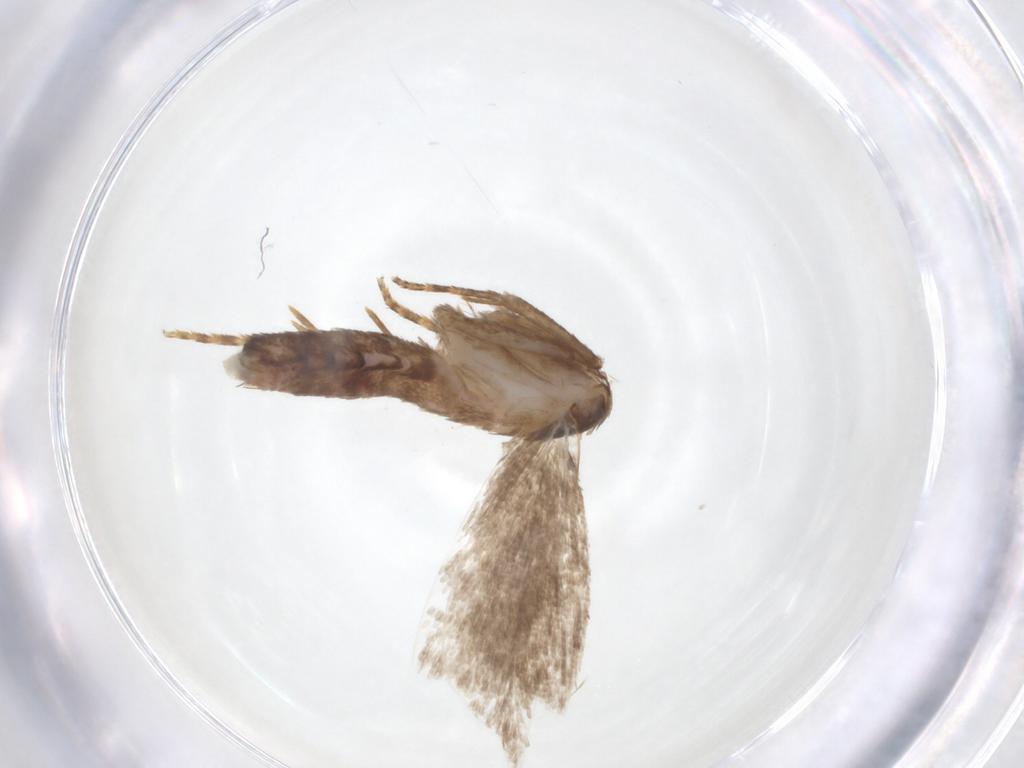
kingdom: Animalia
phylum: Arthropoda
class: Insecta
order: Lepidoptera
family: Gelechiidae
